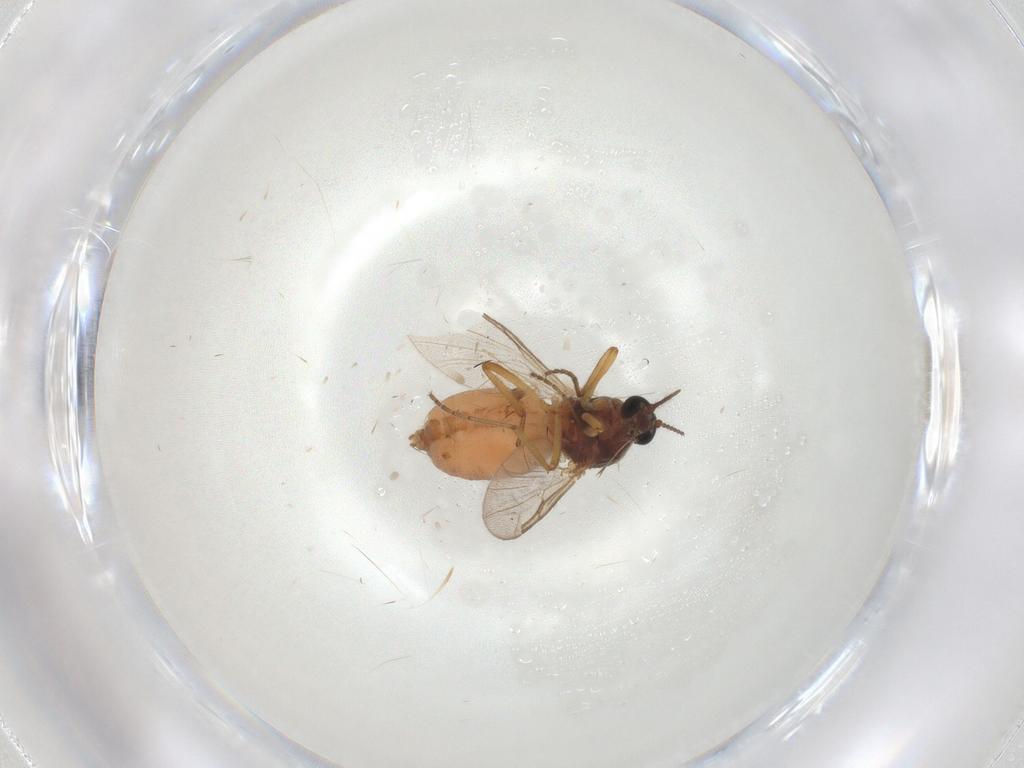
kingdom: Animalia
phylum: Arthropoda
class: Insecta
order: Diptera
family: Ceratopogonidae
